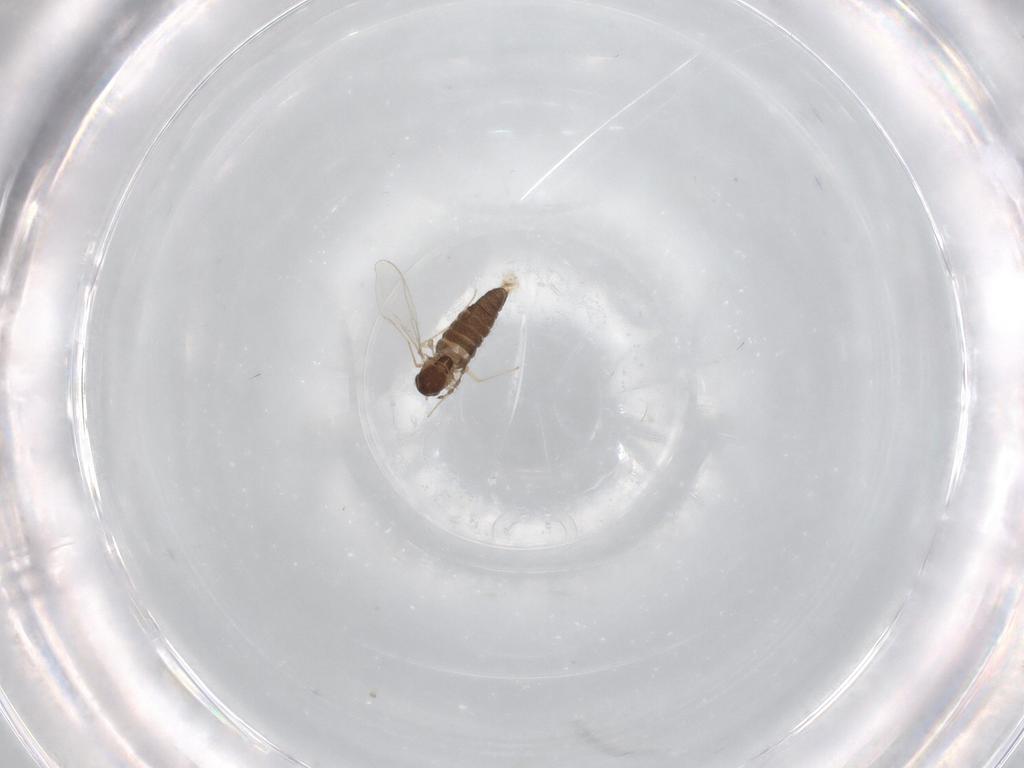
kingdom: Animalia
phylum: Arthropoda
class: Insecta
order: Diptera
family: Chironomidae
